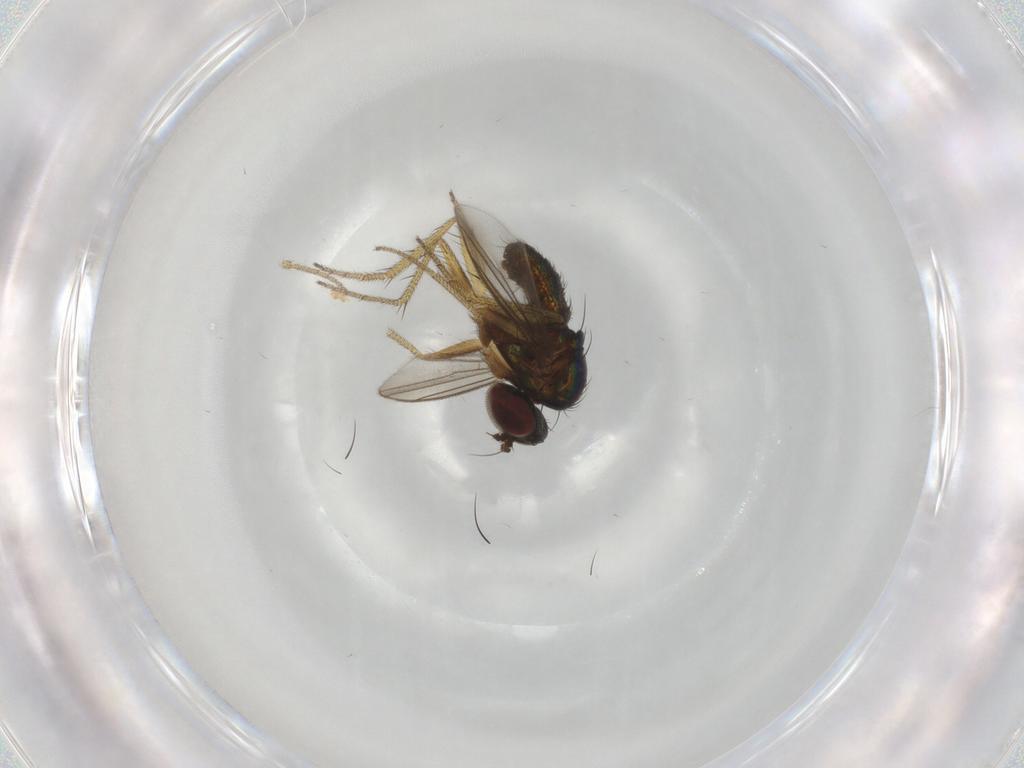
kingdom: Animalia
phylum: Arthropoda
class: Insecta
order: Diptera
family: Dolichopodidae
